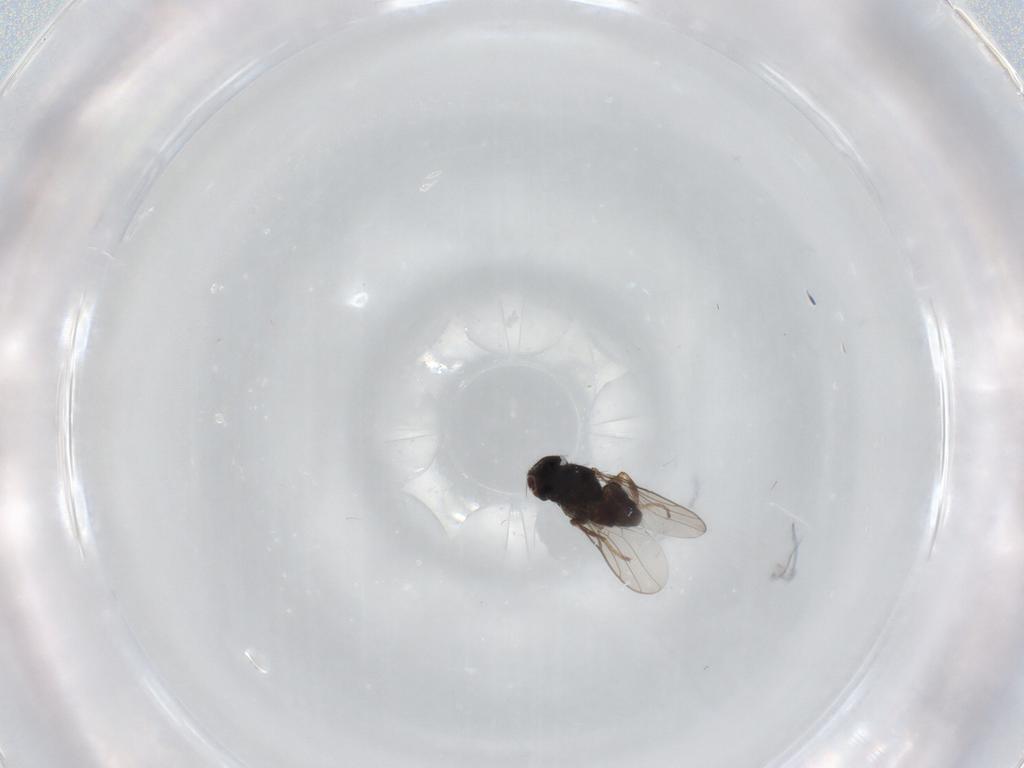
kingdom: Animalia
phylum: Arthropoda
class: Insecta
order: Diptera
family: Chloropidae
